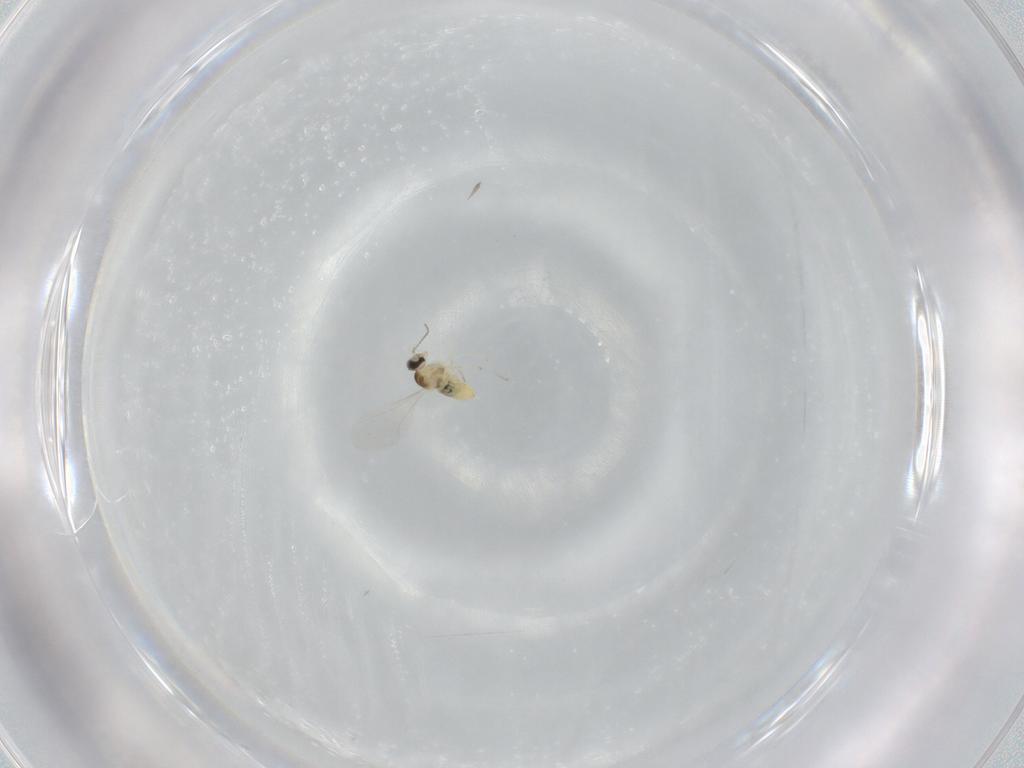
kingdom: Animalia
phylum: Arthropoda
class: Insecta
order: Diptera
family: Cecidomyiidae
